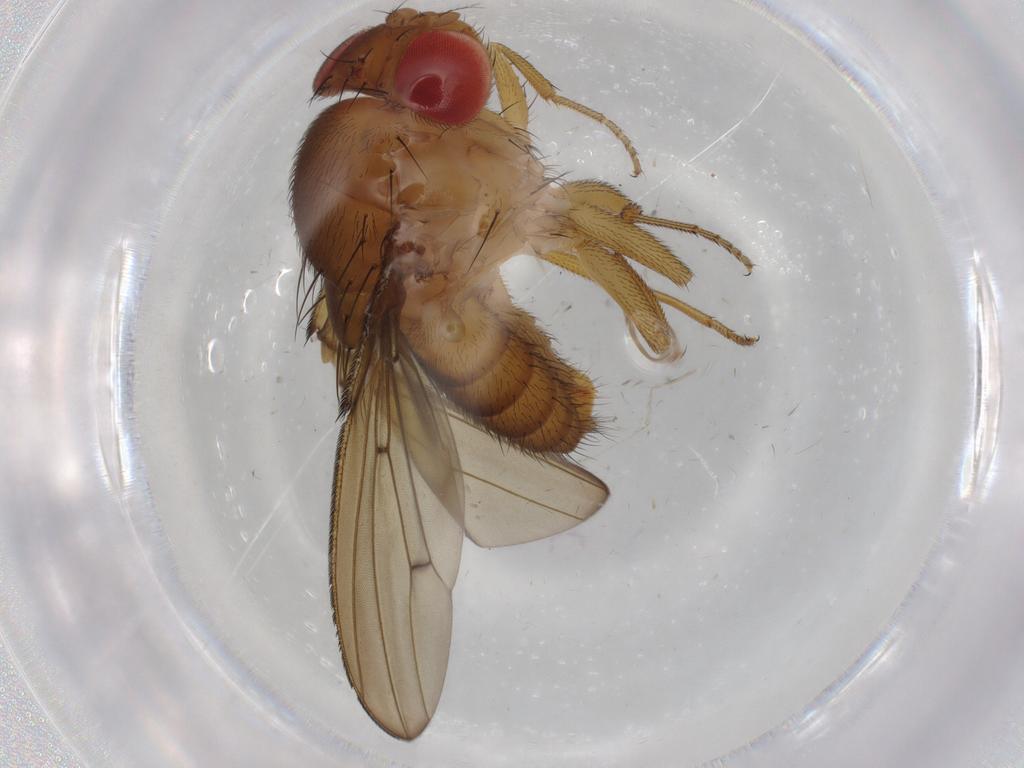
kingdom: Animalia
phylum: Arthropoda
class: Insecta
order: Diptera
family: Drosophilidae
